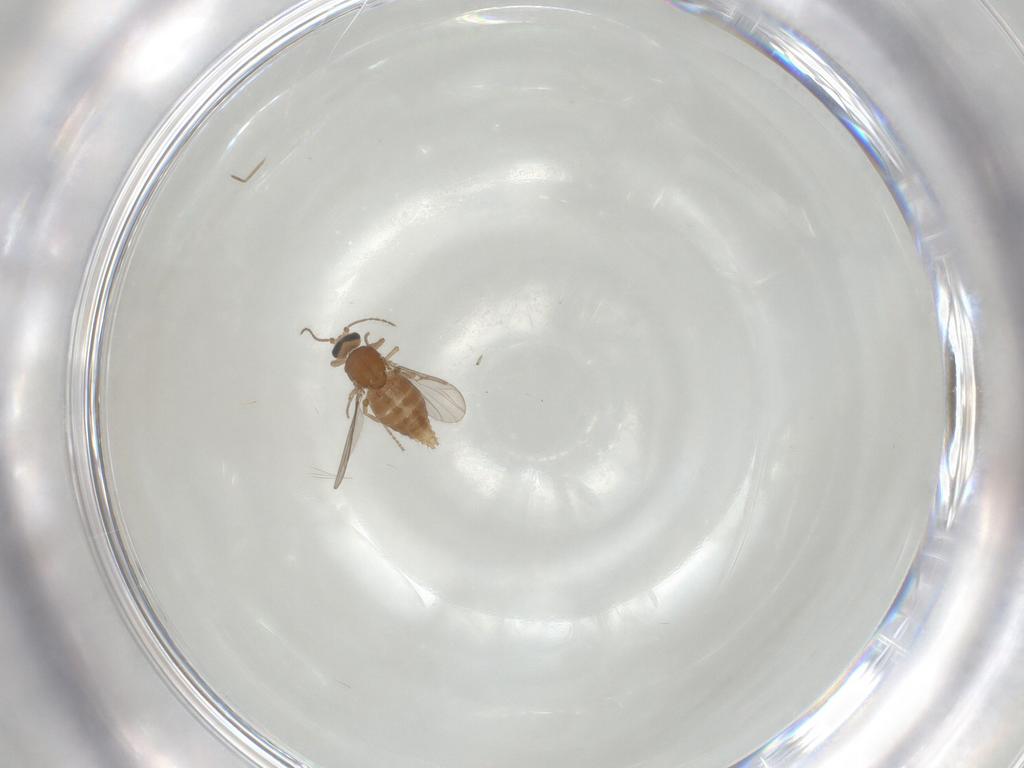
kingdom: Animalia
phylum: Arthropoda
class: Insecta
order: Diptera
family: Ceratopogonidae
